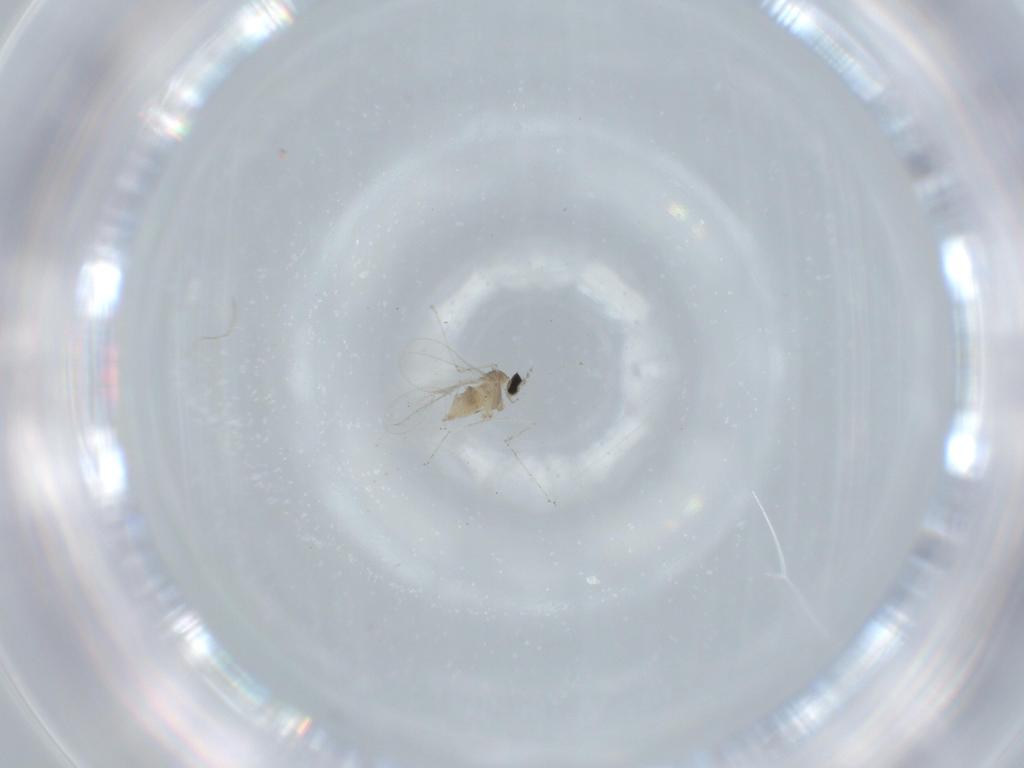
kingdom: Animalia
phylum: Arthropoda
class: Insecta
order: Diptera
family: Cecidomyiidae
